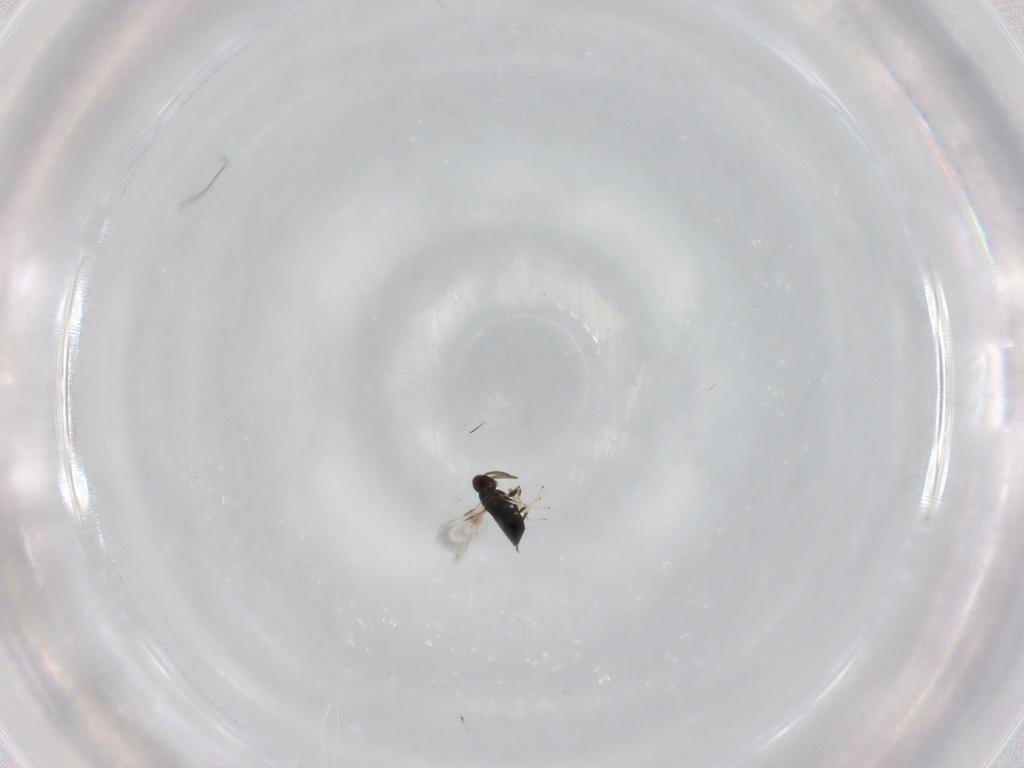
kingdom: Animalia
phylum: Arthropoda
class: Insecta
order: Hymenoptera
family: Signiphoridae
